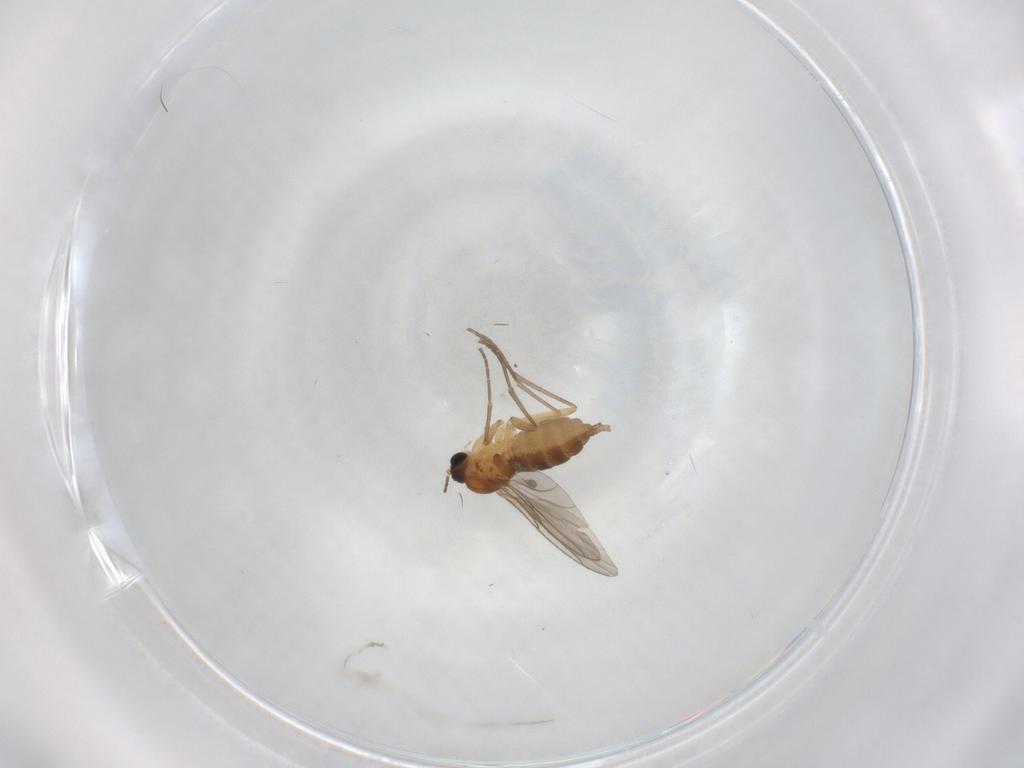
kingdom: Animalia
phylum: Arthropoda
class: Insecta
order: Diptera
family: Sciaridae
